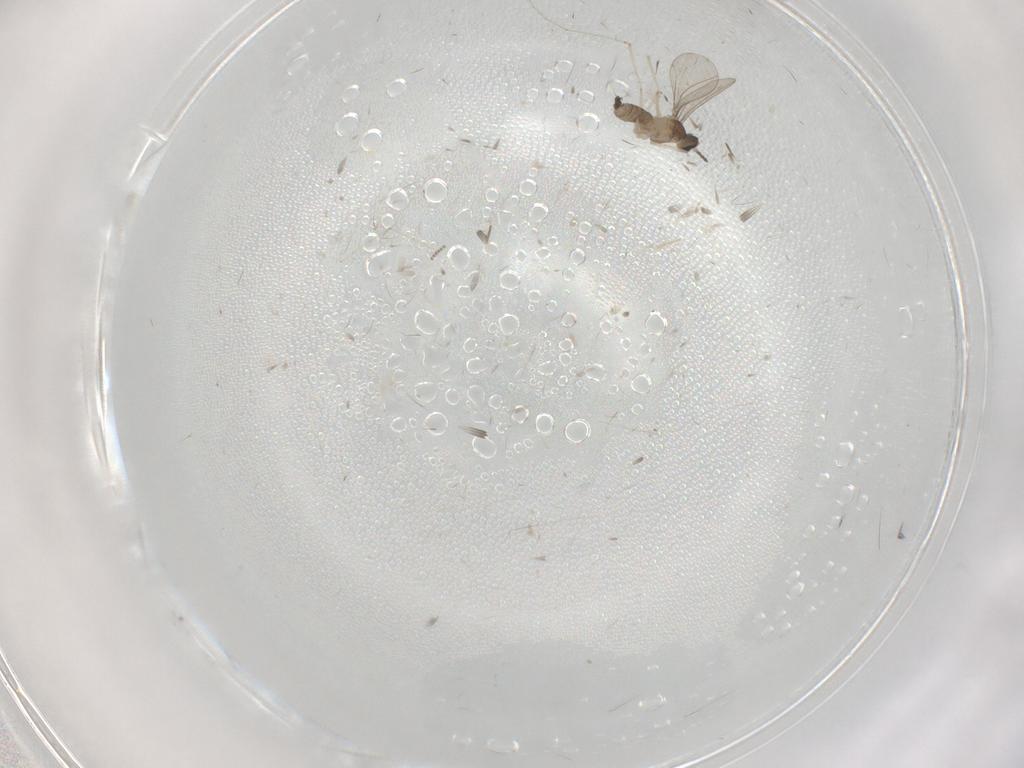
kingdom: Animalia
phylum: Arthropoda
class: Insecta
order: Diptera
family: Cecidomyiidae
